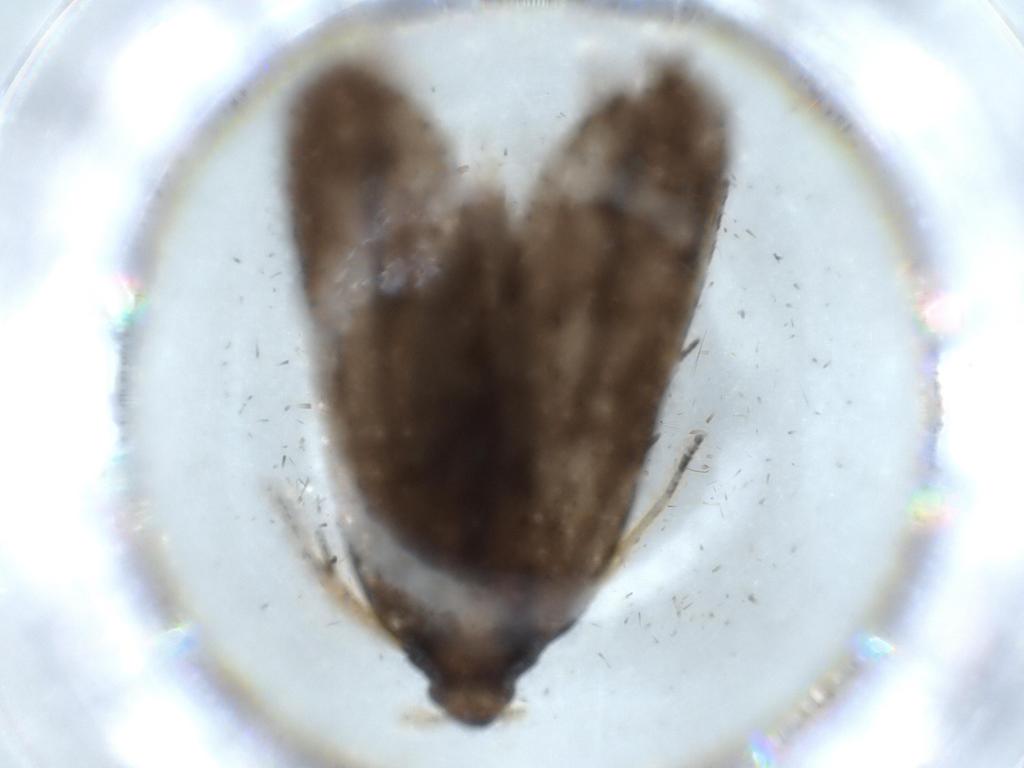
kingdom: Animalia
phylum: Arthropoda
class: Insecta
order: Lepidoptera
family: Lecithoceridae
